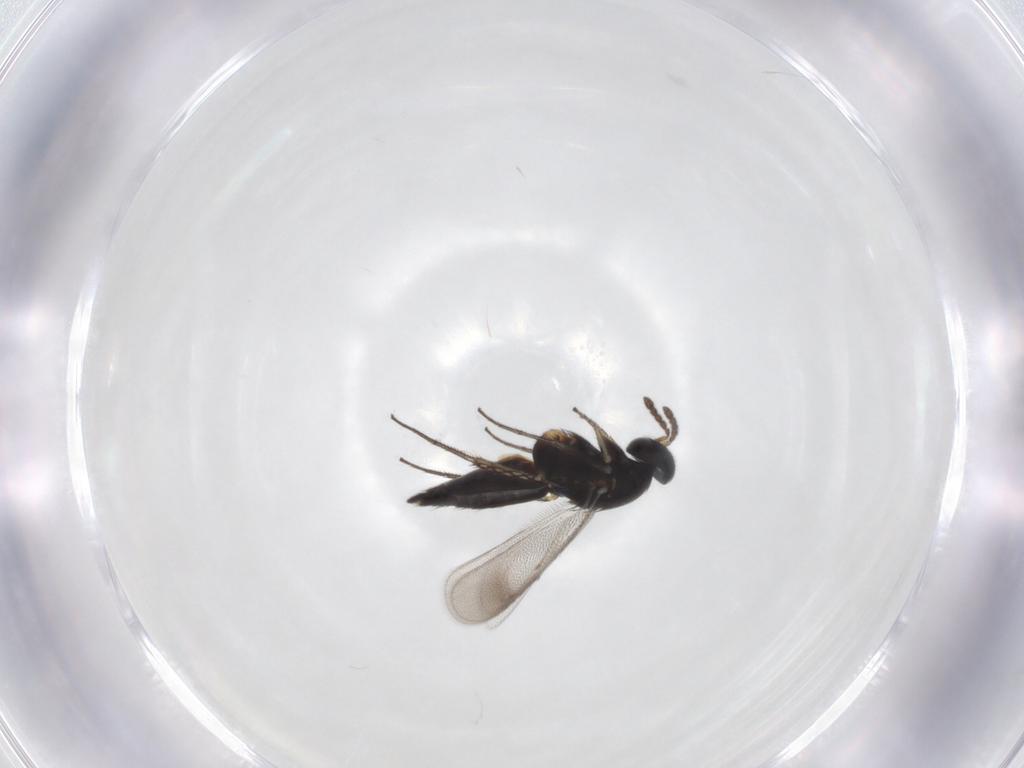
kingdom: Animalia
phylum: Arthropoda
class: Insecta
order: Hymenoptera
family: Eulophidae
